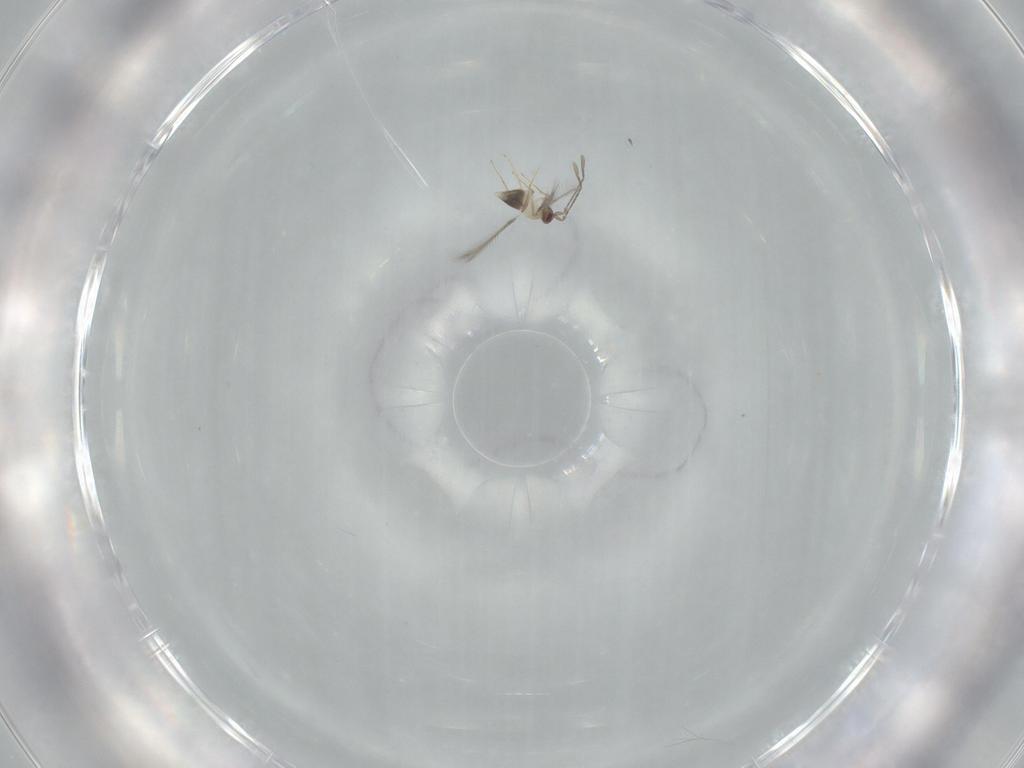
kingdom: Animalia
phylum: Arthropoda
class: Insecta
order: Hymenoptera
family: Mymaridae
